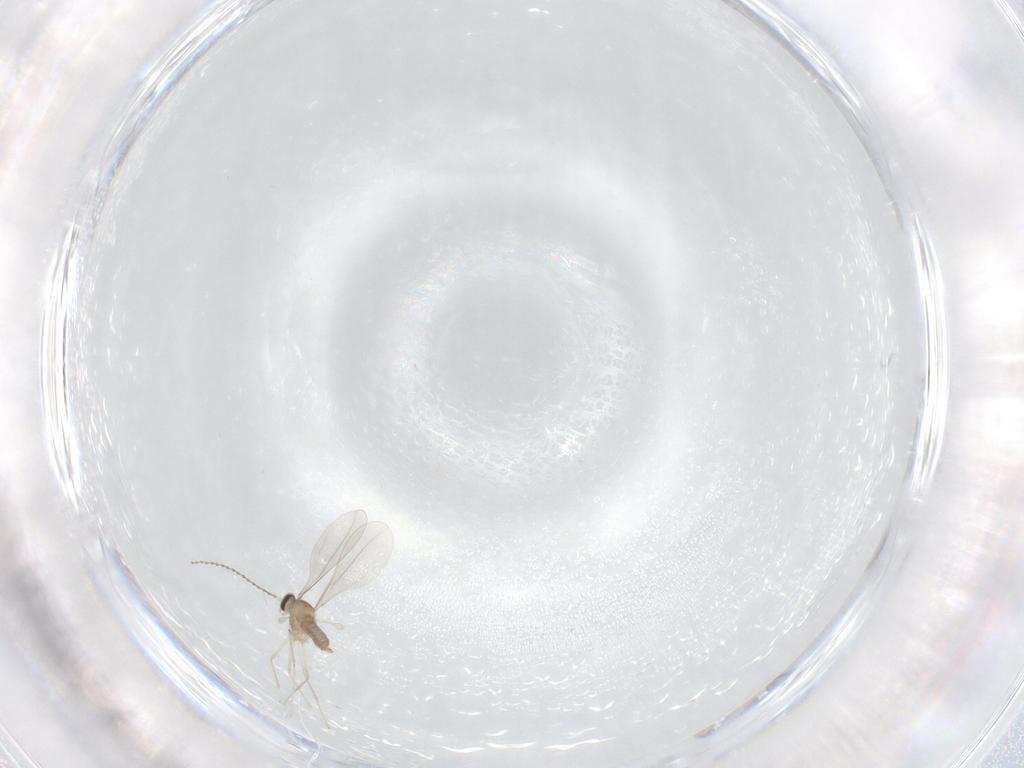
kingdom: Animalia
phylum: Arthropoda
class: Insecta
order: Diptera
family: Cecidomyiidae
